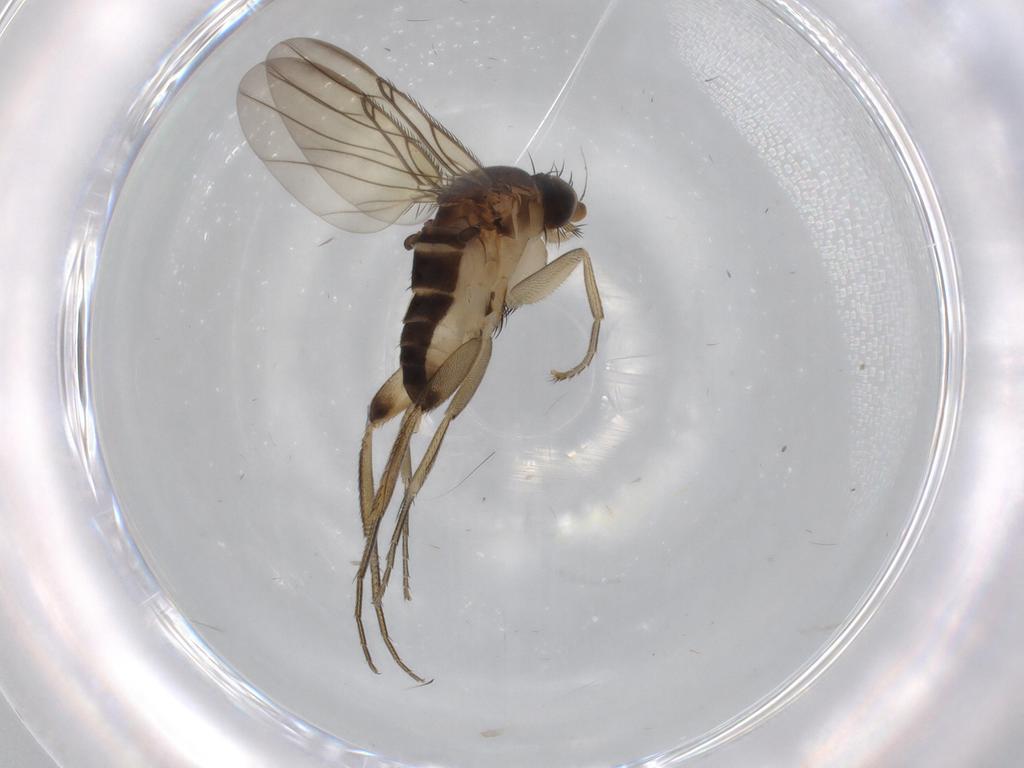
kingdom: Animalia
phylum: Arthropoda
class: Insecta
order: Diptera
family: Phoridae
